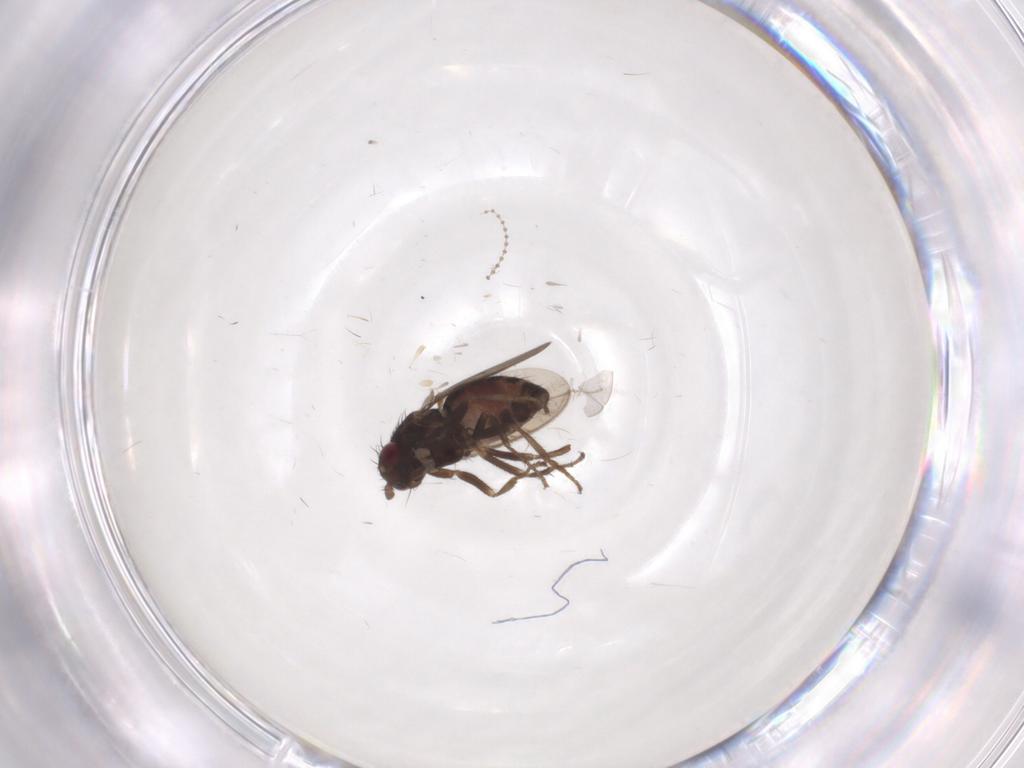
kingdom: Animalia
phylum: Arthropoda
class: Insecta
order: Diptera
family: Sphaeroceridae
